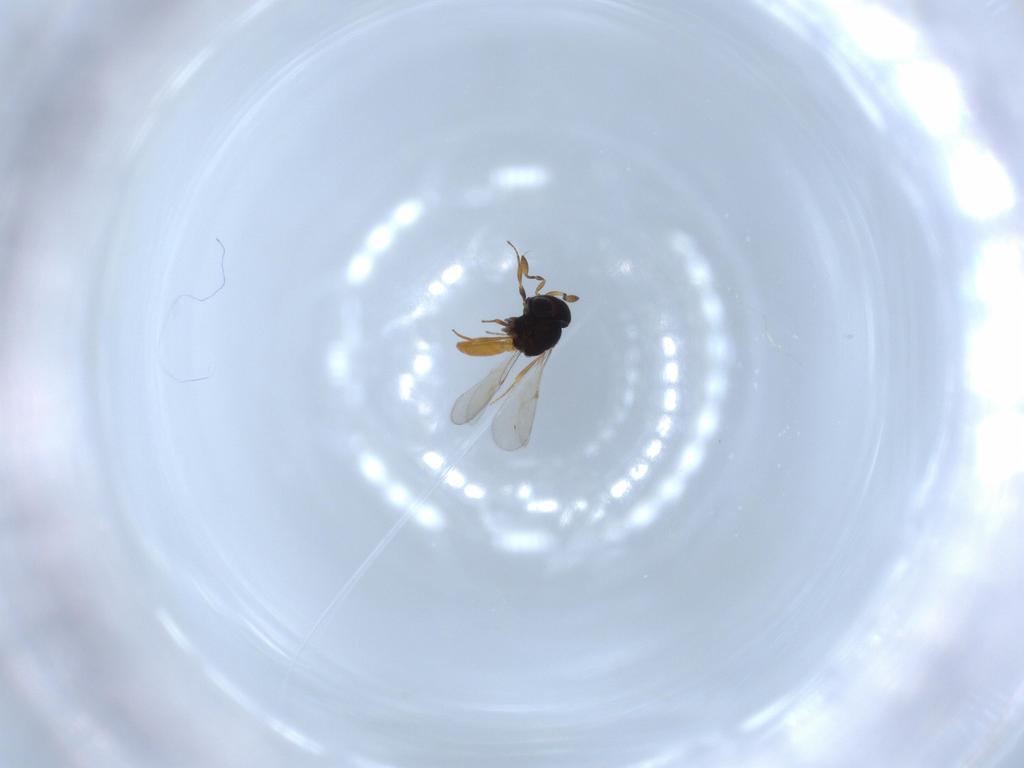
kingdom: Animalia
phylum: Arthropoda
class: Insecta
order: Hymenoptera
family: Scelionidae
